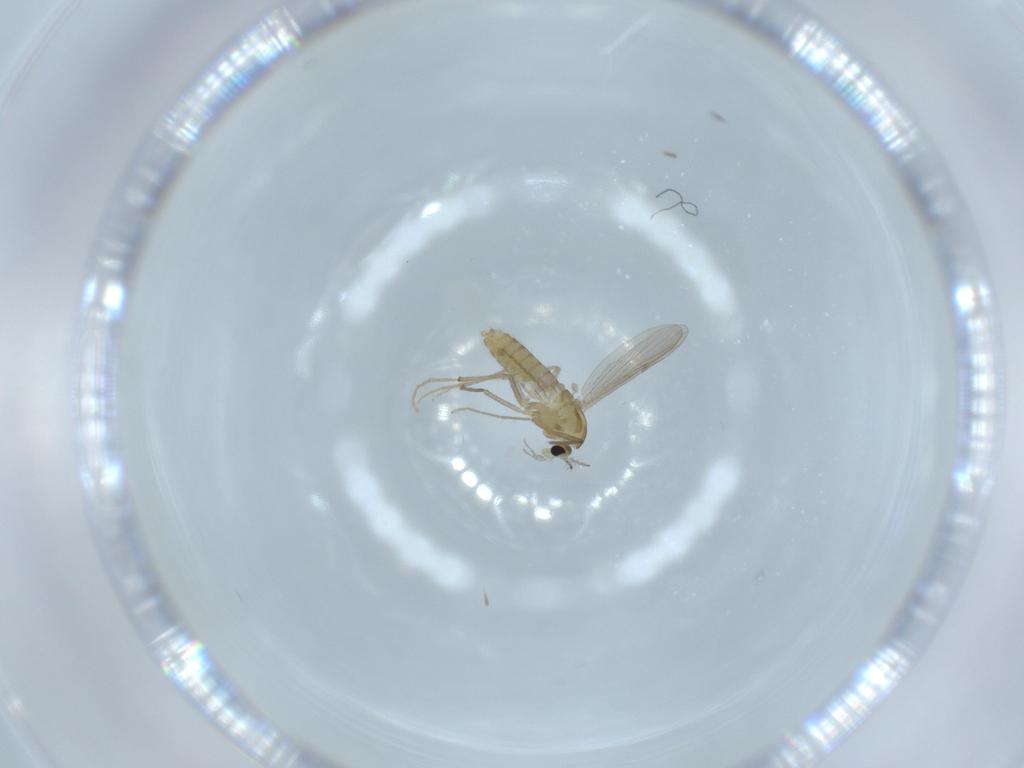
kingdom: Animalia
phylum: Arthropoda
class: Insecta
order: Diptera
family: Chironomidae
